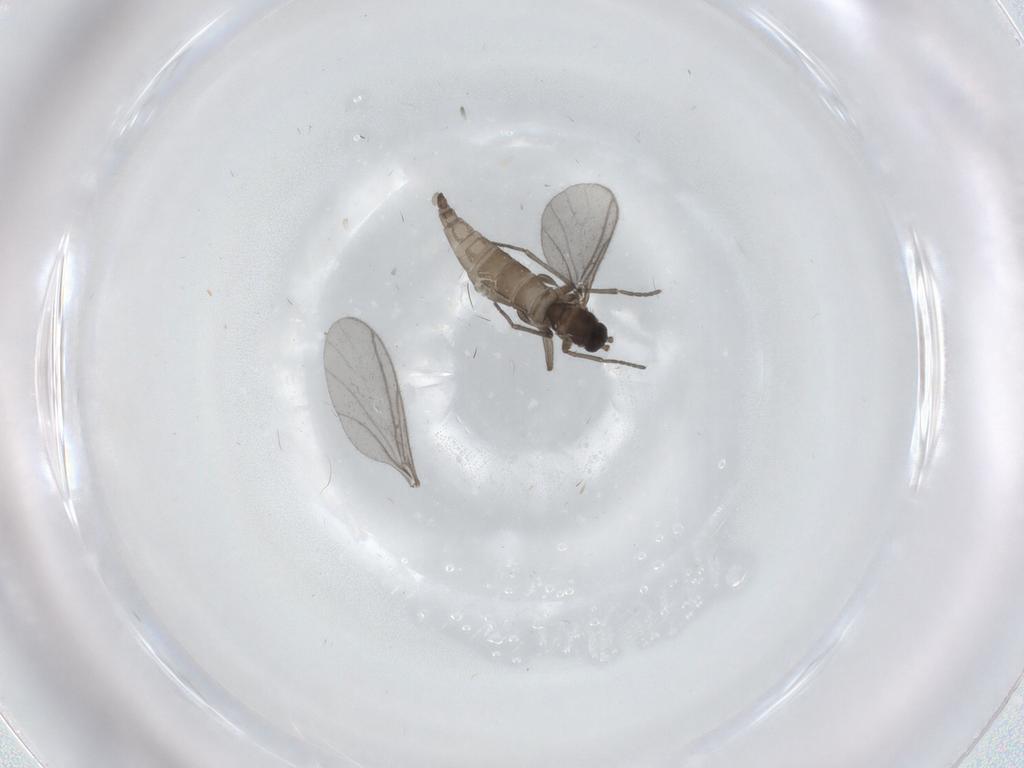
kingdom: Animalia
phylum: Arthropoda
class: Insecta
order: Diptera
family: Sciaridae
